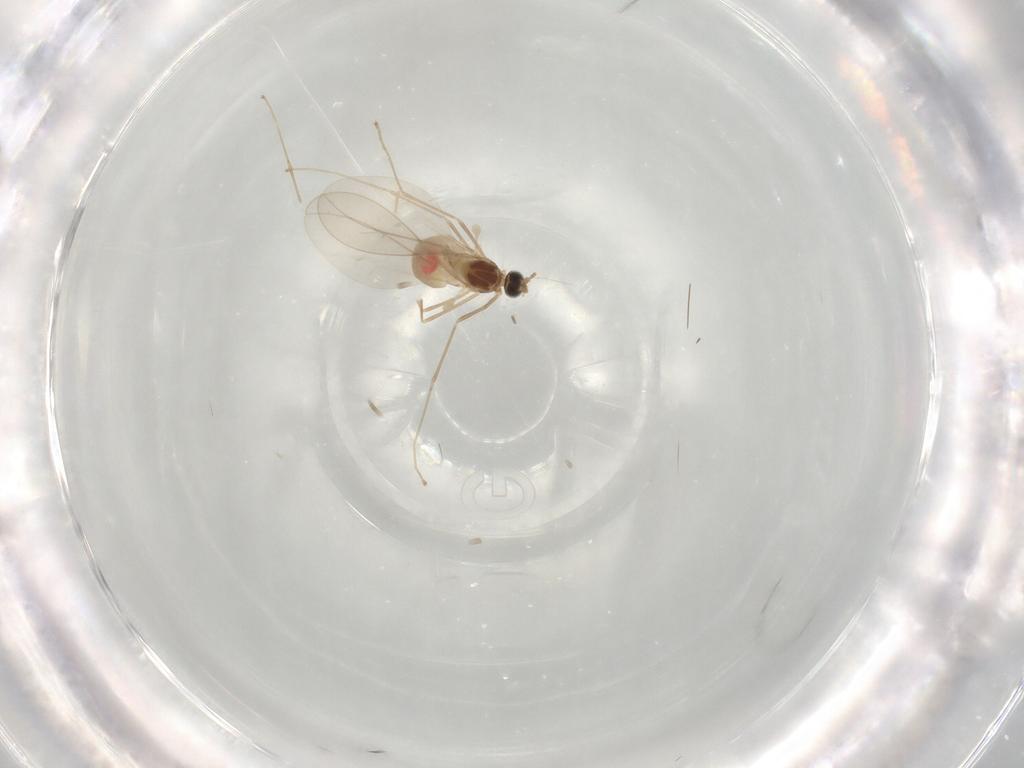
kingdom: Animalia
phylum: Arthropoda
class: Insecta
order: Diptera
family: Cecidomyiidae
